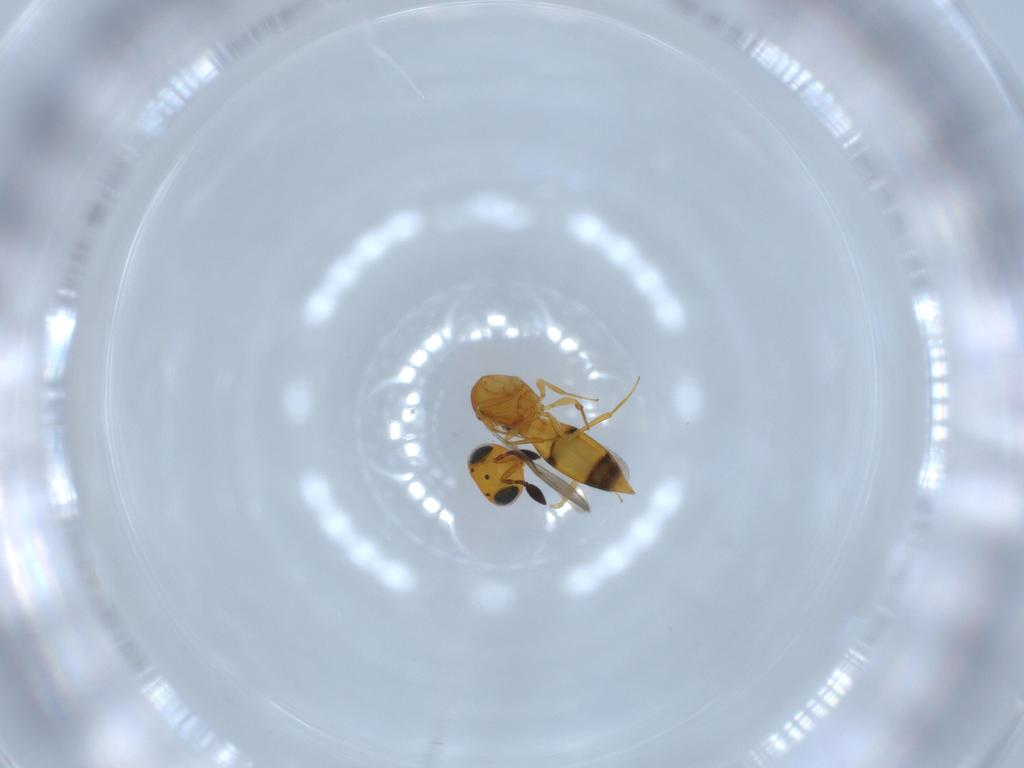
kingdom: Animalia
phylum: Arthropoda
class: Insecta
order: Hymenoptera
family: Scelionidae
